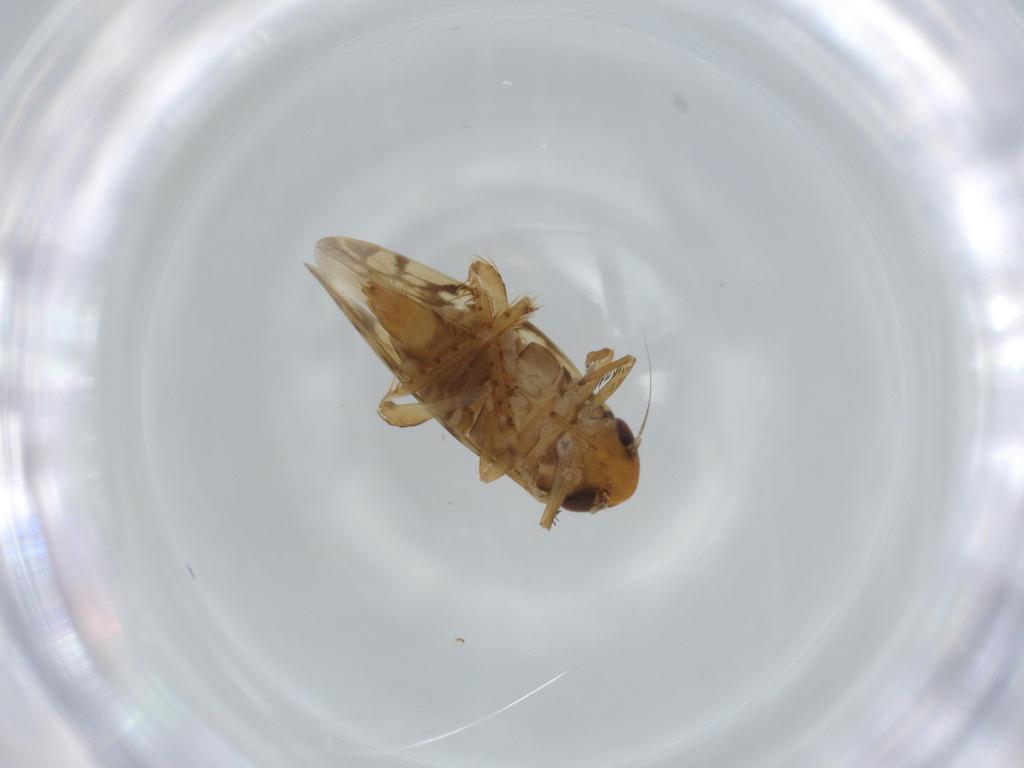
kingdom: Animalia
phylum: Arthropoda
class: Insecta
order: Hemiptera
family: Cicadellidae
